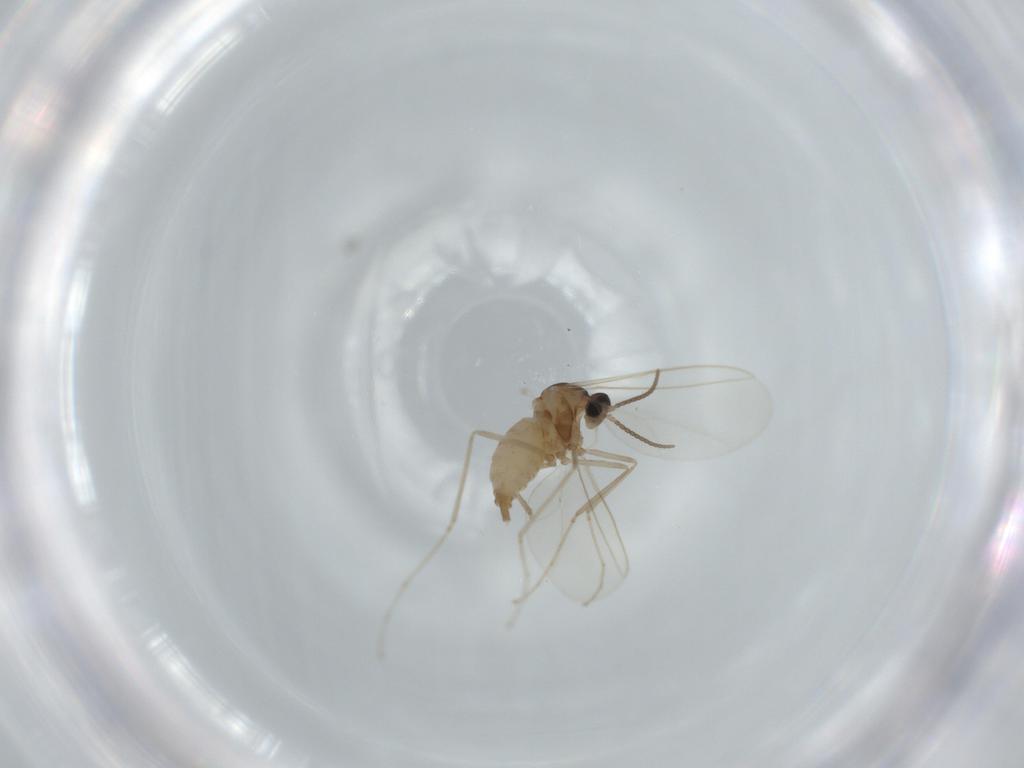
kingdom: Animalia
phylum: Arthropoda
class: Insecta
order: Diptera
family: Cecidomyiidae
